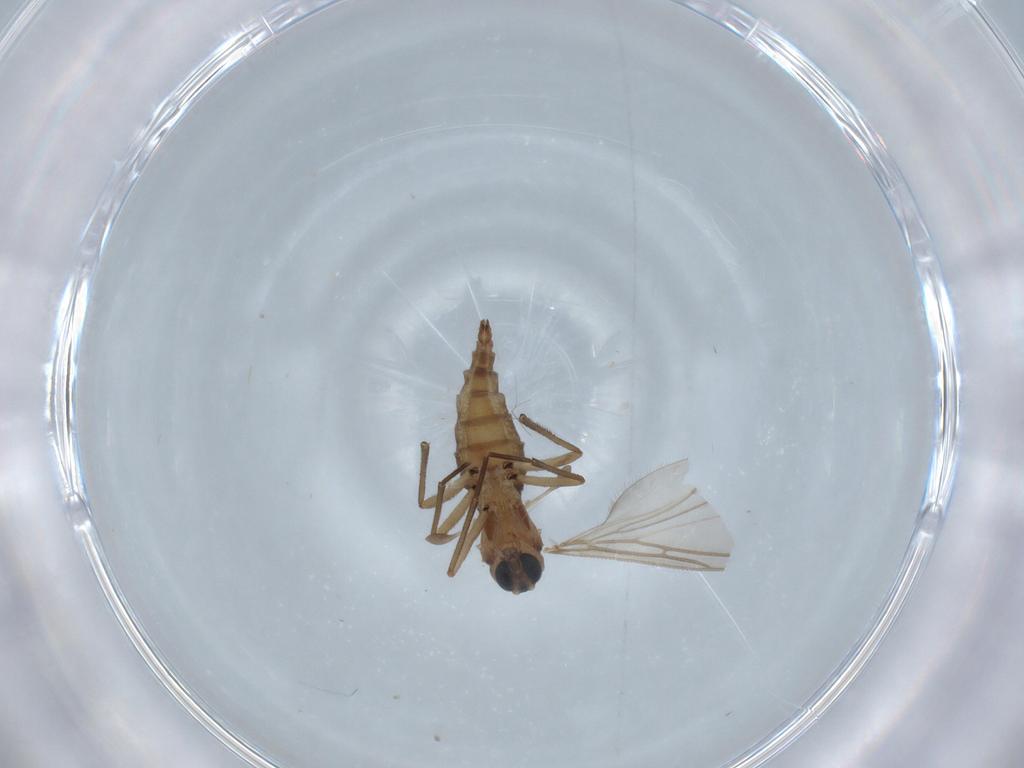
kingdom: Animalia
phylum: Arthropoda
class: Insecta
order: Diptera
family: Sciaridae
